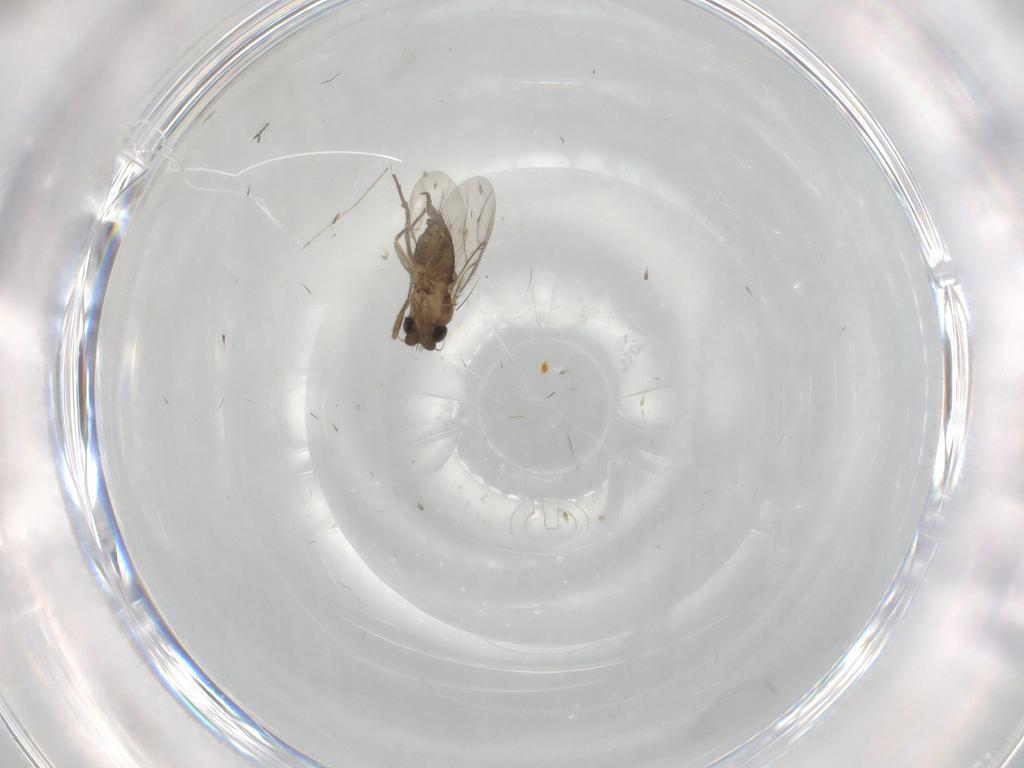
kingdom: Animalia
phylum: Arthropoda
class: Insecta
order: Diptera
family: Phoridae
